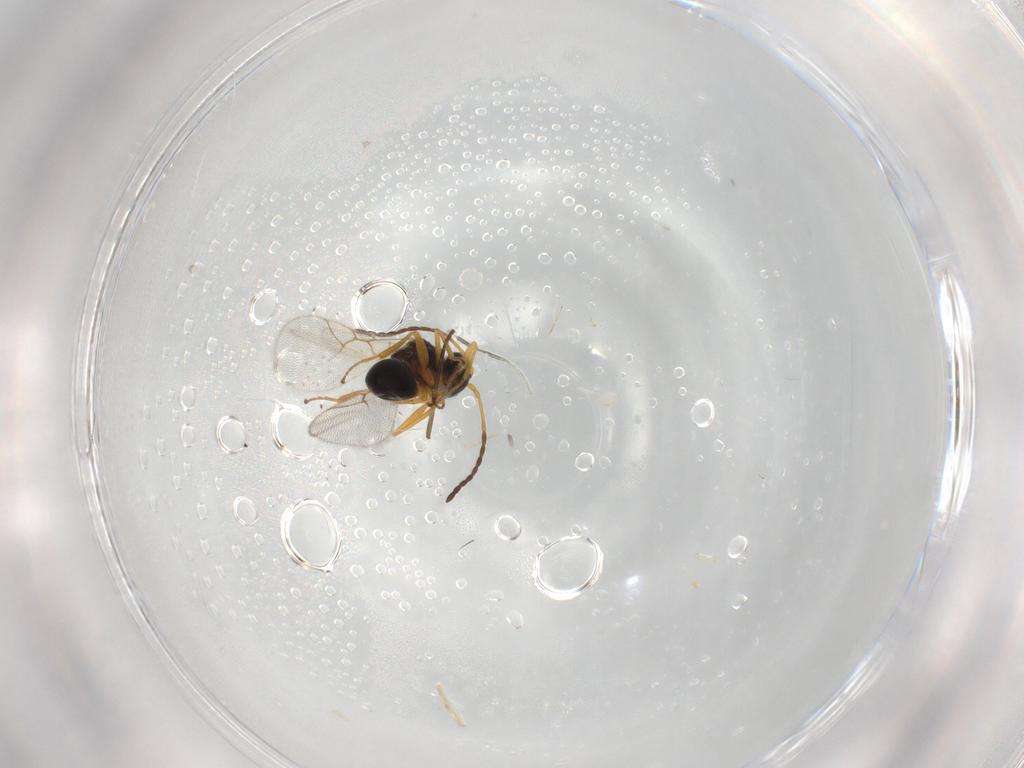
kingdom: Animalia
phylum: Arthropoda
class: Insecta
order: Hymenoptera
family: Figitidae
